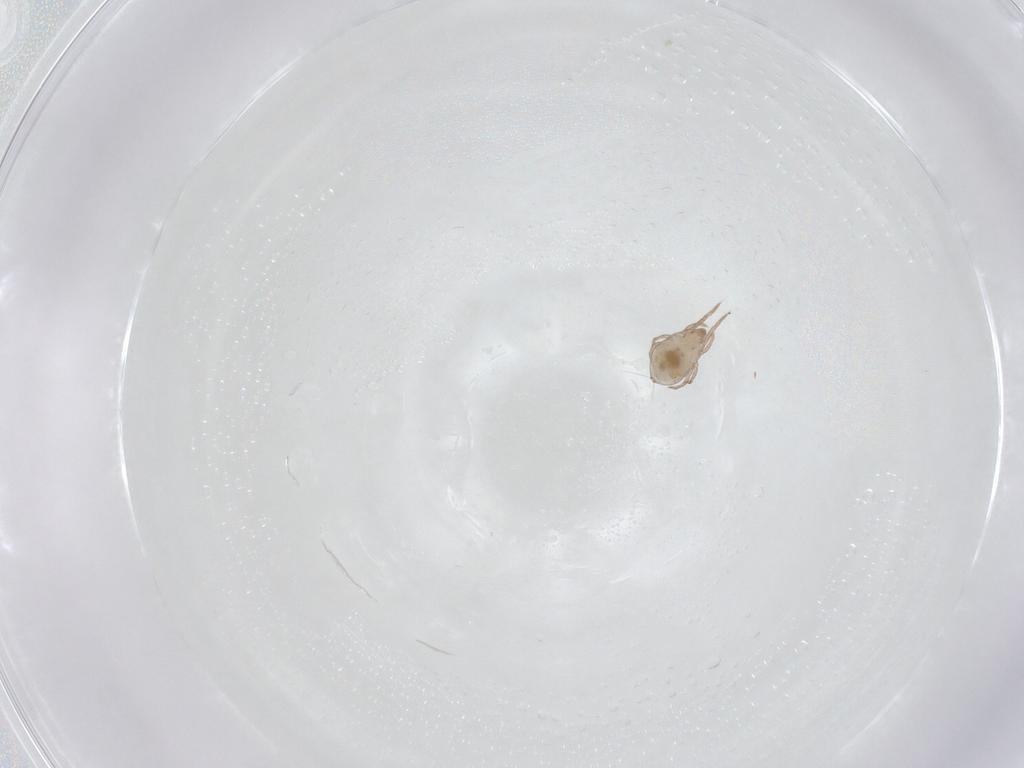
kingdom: Animalia
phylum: Arthropoda
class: Arachnida
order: Sarcoptiformes
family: Ceratoppiidae
